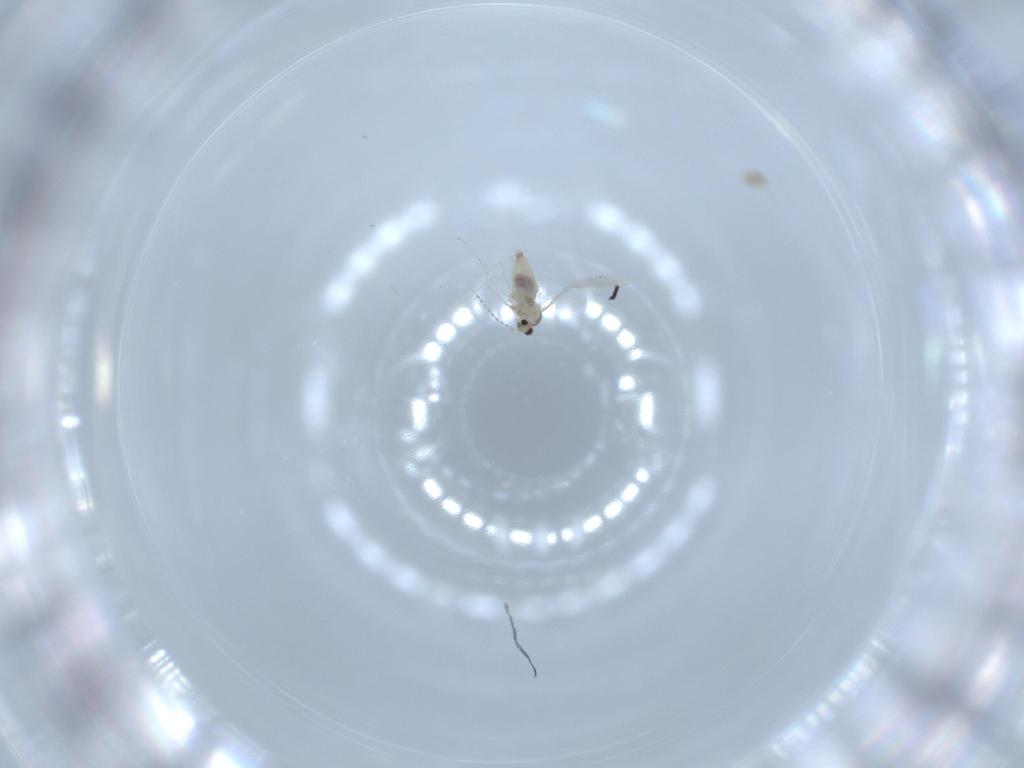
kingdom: Animalia
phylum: Arthropoda
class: Insecta
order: Diptera
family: Cecidomyiidae
